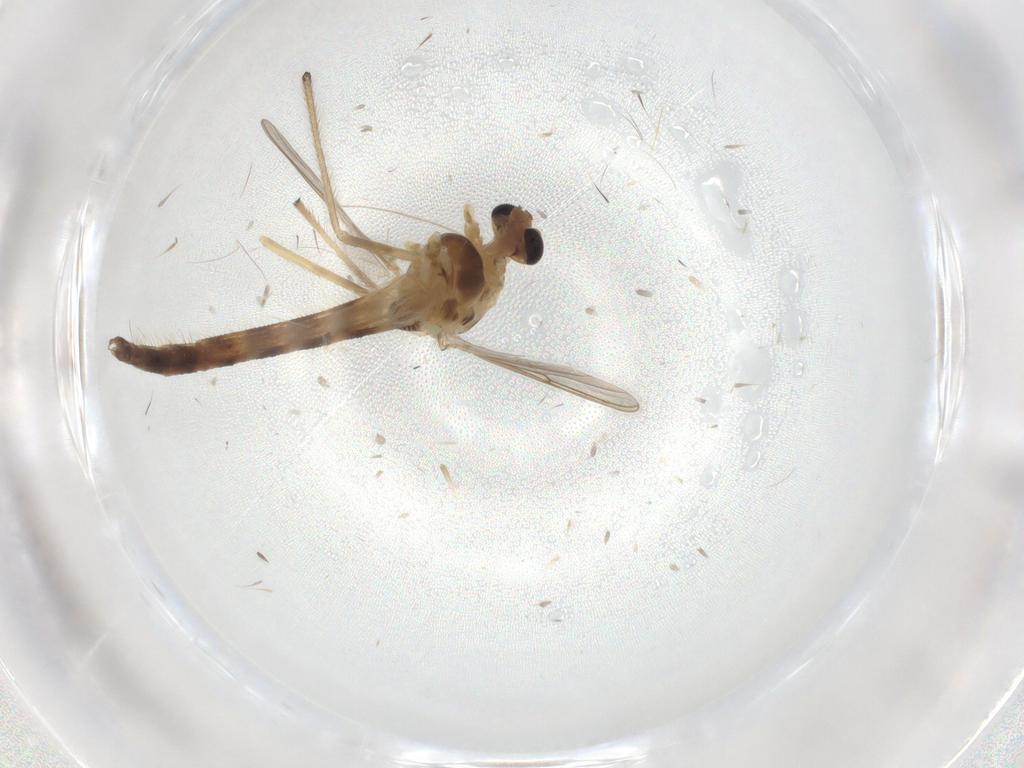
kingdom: Animalia
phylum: Arthropoda
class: Insecta
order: Diptera
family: Chironomidae
